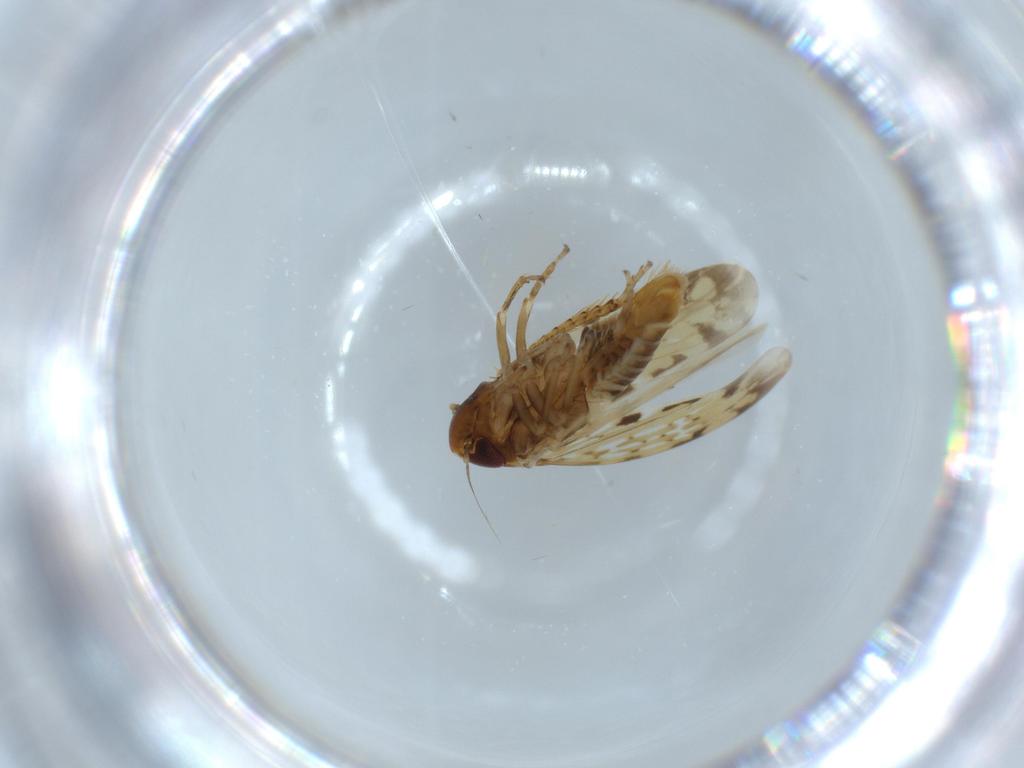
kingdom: Animalia
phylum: Arthropoda
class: Insecta
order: Hemiptera
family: Cicadellidae
